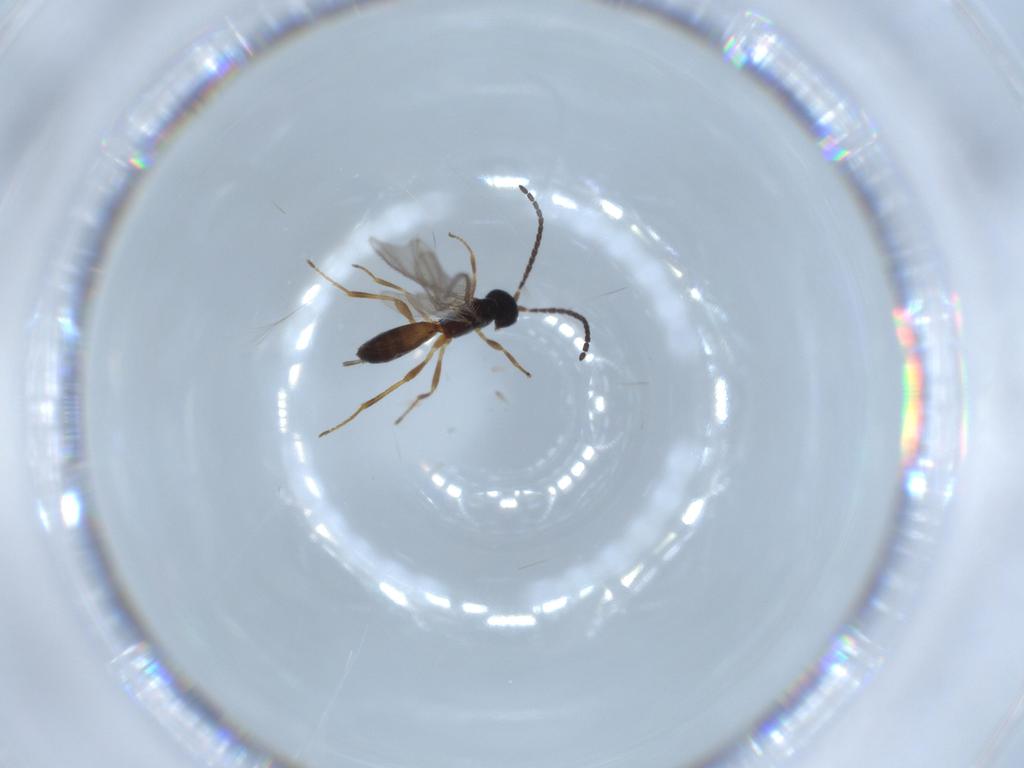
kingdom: Animalia
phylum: Arthropoda
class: Insecta
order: Hymenoptera
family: Braconidae
